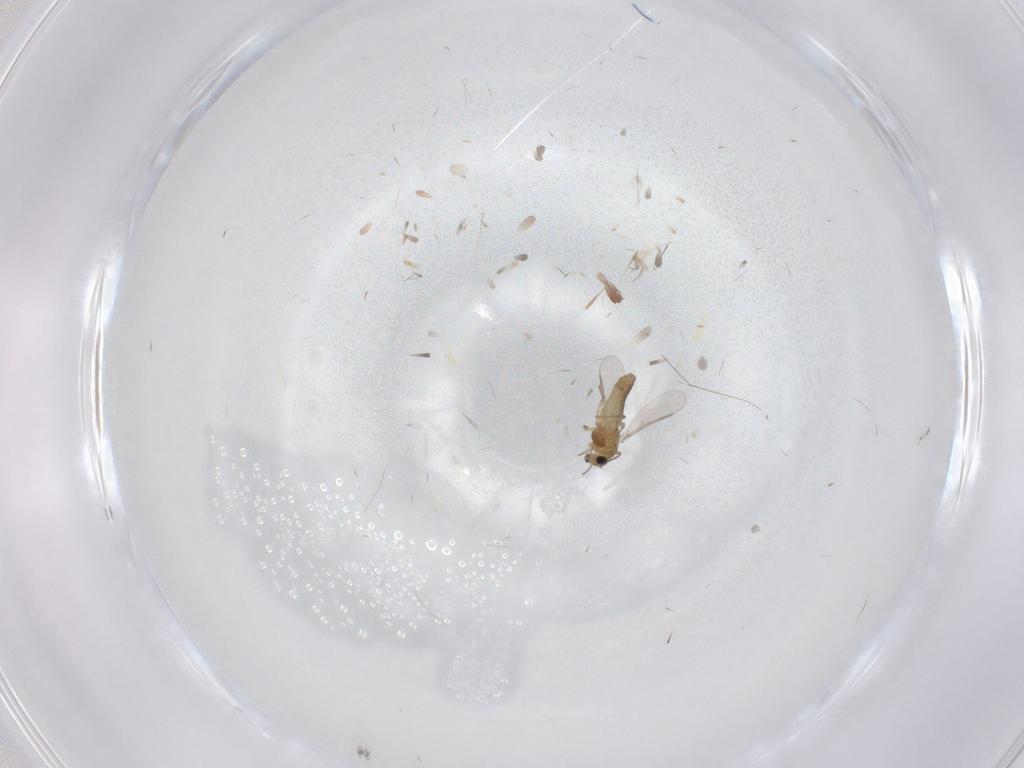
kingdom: Animalia
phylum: Arthropoda
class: Insecta
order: Diptera
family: Chironomidae
